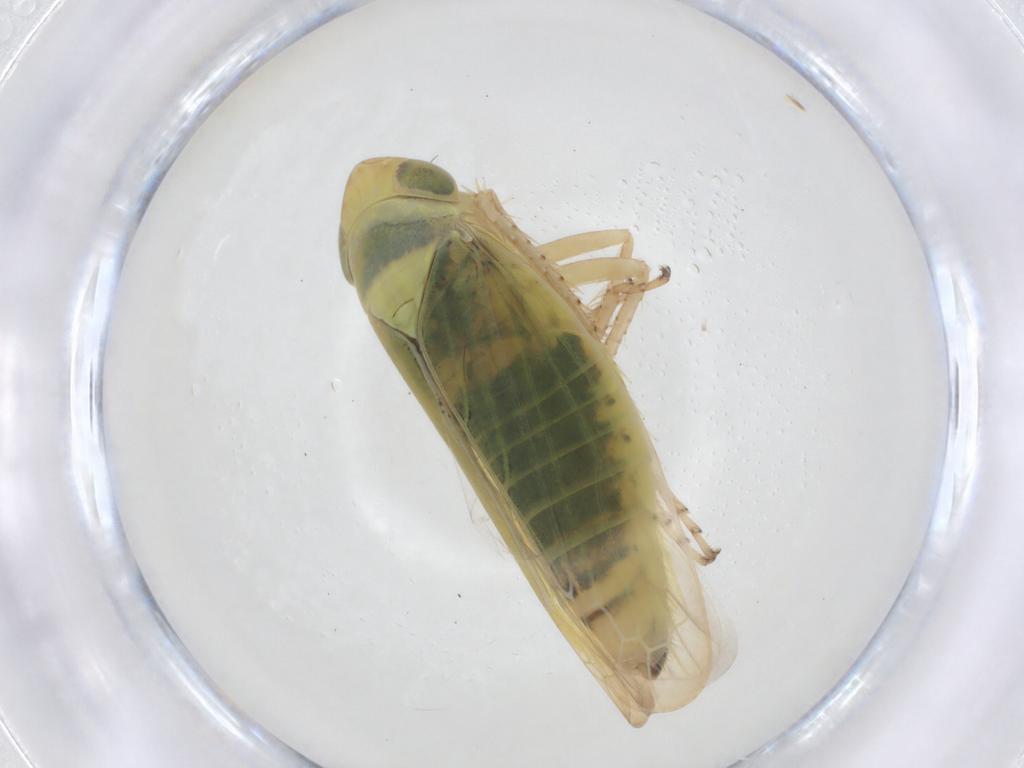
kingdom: Animalia
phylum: Arthropoda
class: Insecta
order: Hemiptera
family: Cicadellidae
